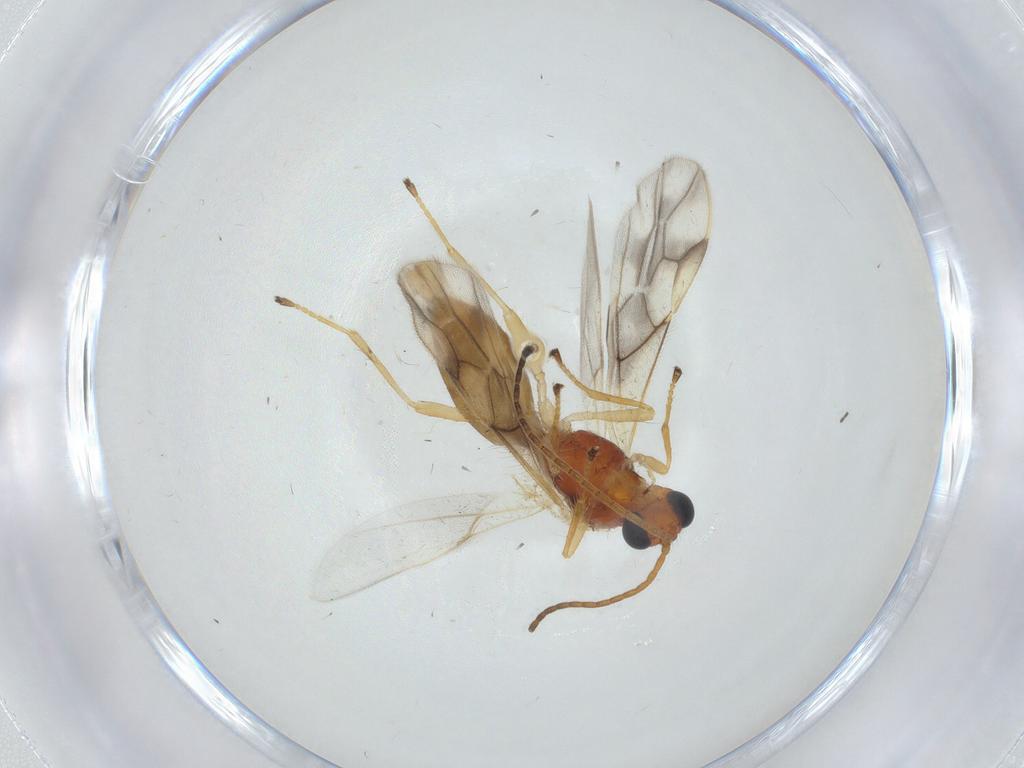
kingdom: Animalia
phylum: Arthropoda
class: Insecta
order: Hymenoptera
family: Braconidae
